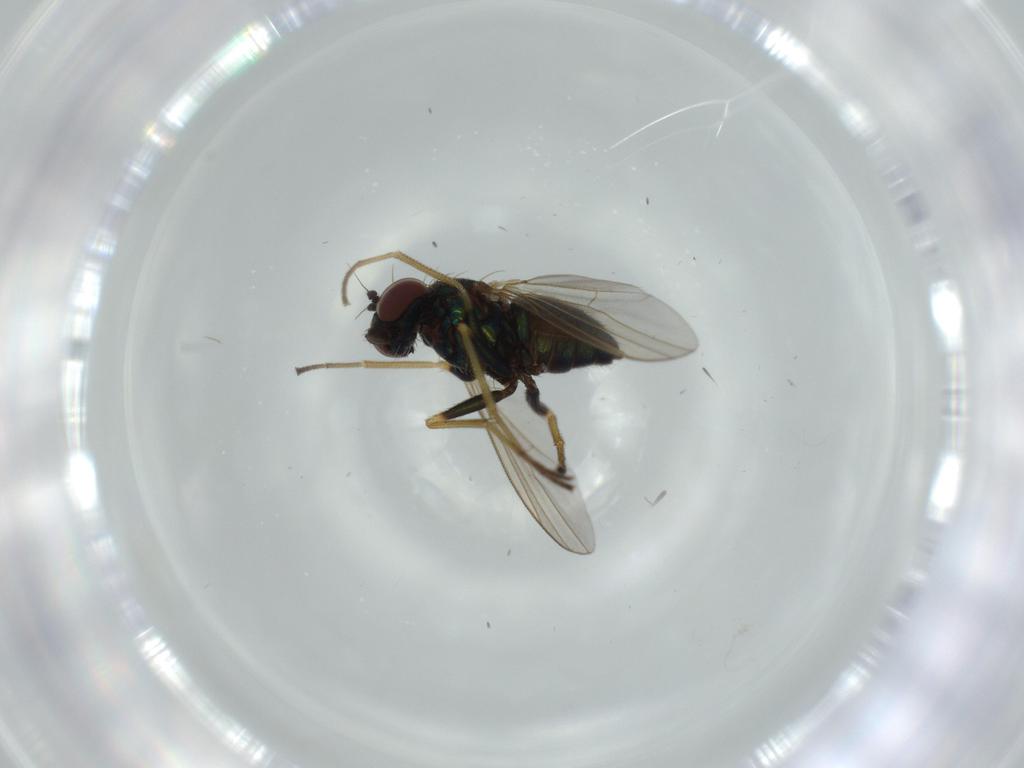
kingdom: Animalia
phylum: Arthropoda
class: Insecta
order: Diptera
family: Dolichopodidae
